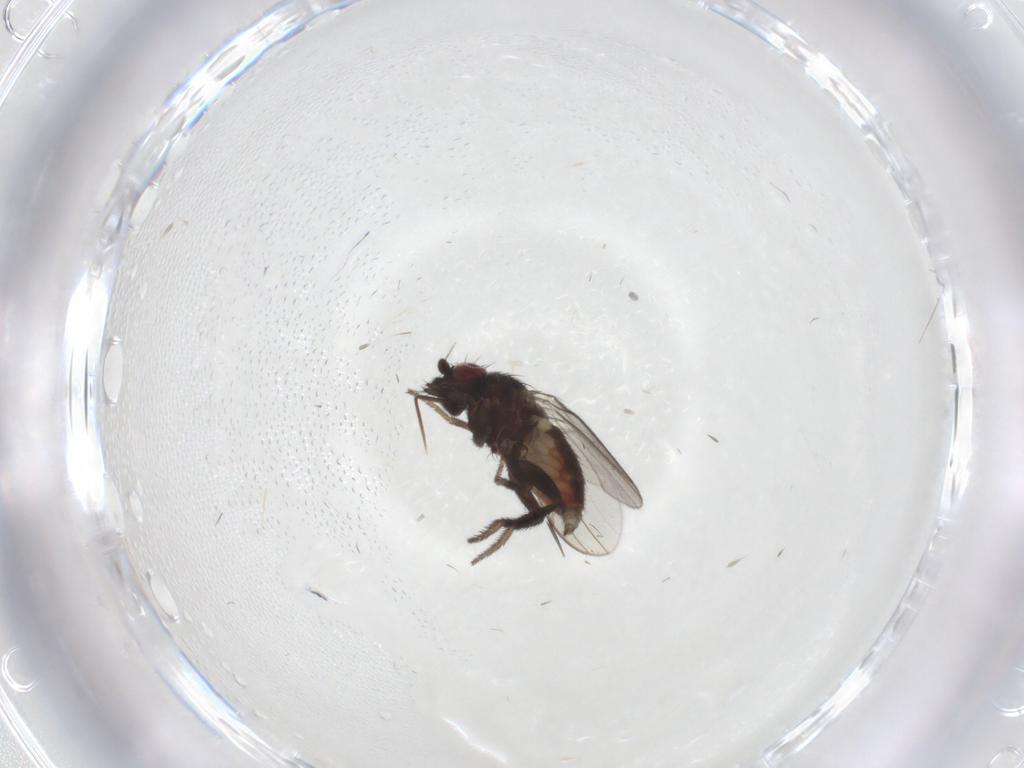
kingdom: Animalia
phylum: Arthropoda
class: Insecta
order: Diptera
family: Milichiidae
